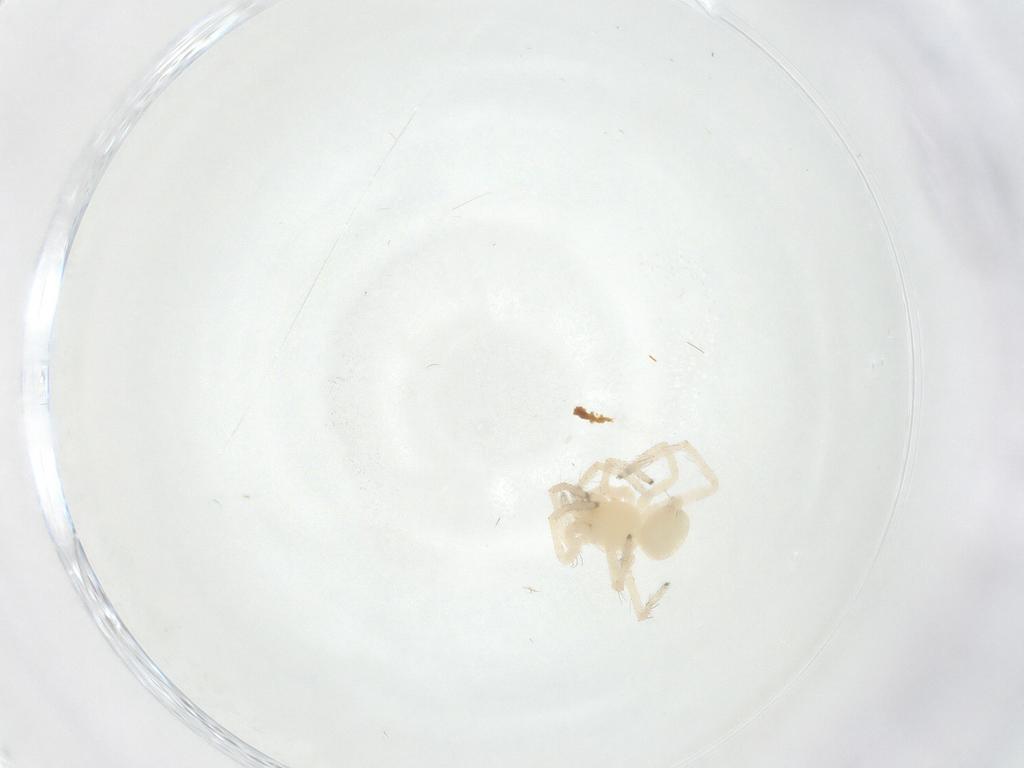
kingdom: Animalia
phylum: Arthropoda
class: Arachnida
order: Araneae
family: Anyphaenidae
